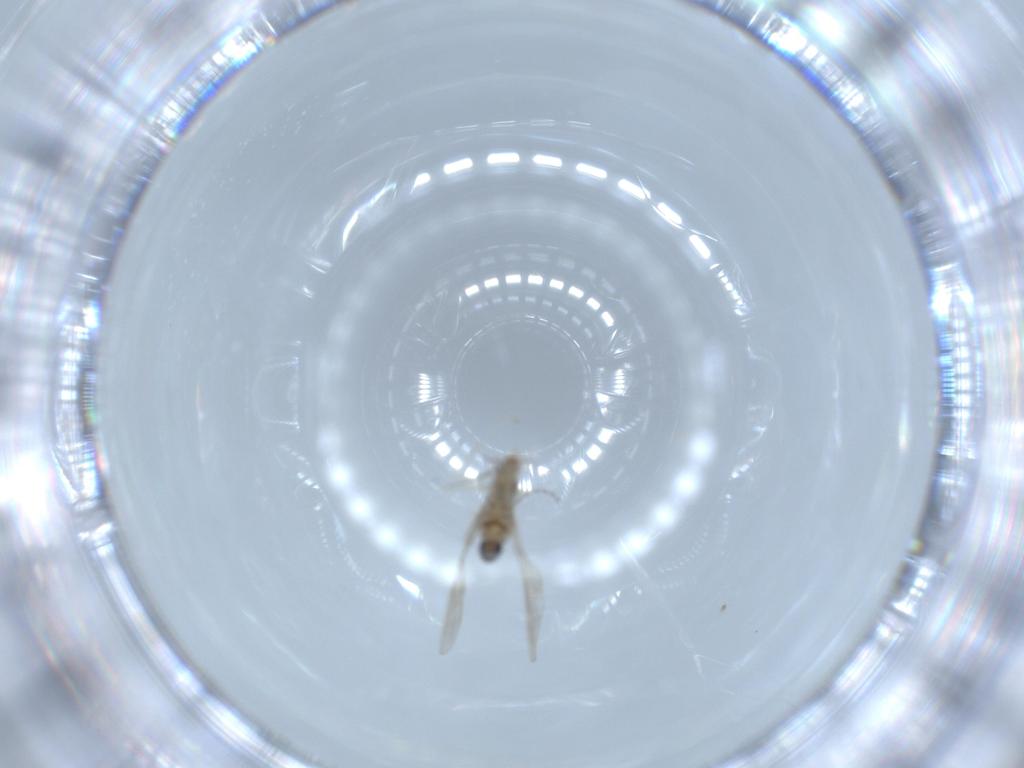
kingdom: Animalia
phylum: Arthropoda
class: Insecta
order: Diptera
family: Cecidomyiidae
